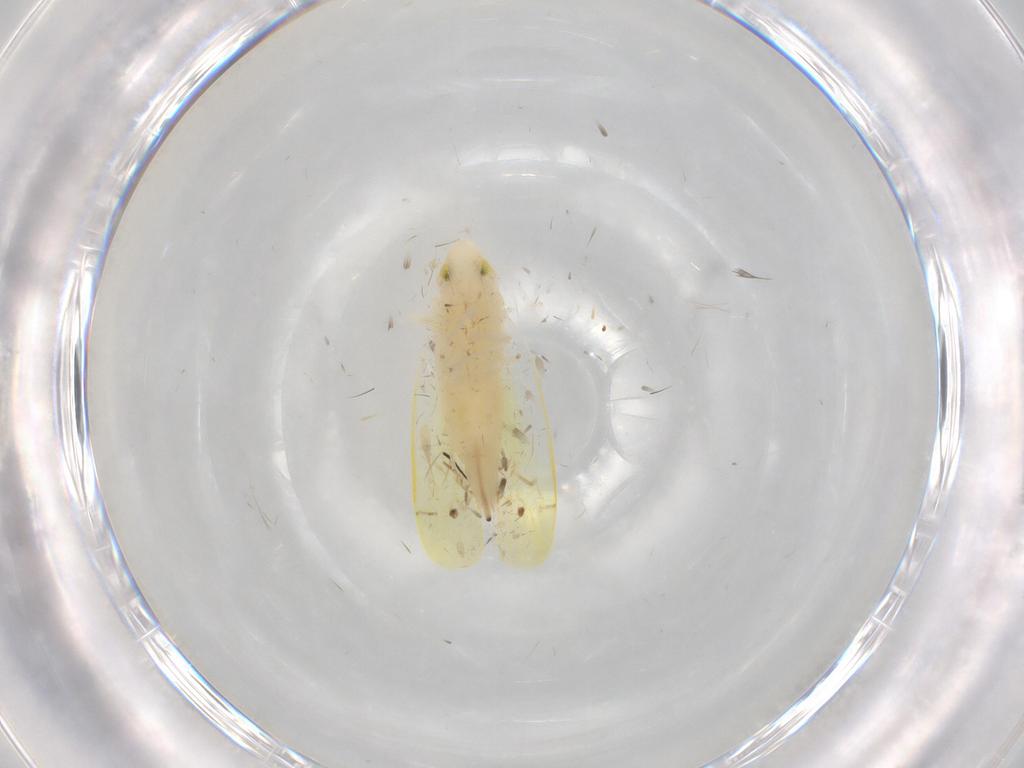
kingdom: Animalia
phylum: Arthropoda
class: Insecta
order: Hemiptera
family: Cicadellidae
